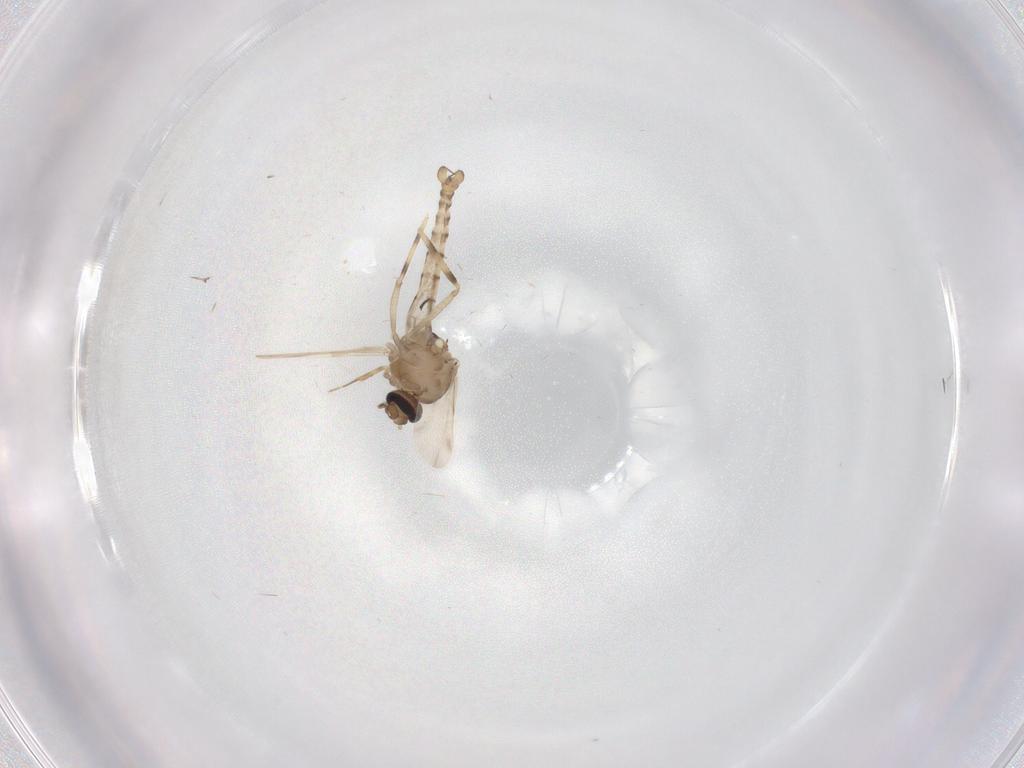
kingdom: Animalia
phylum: Arthropoda
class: Insecta
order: Diptera
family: Ceratopogonidae
